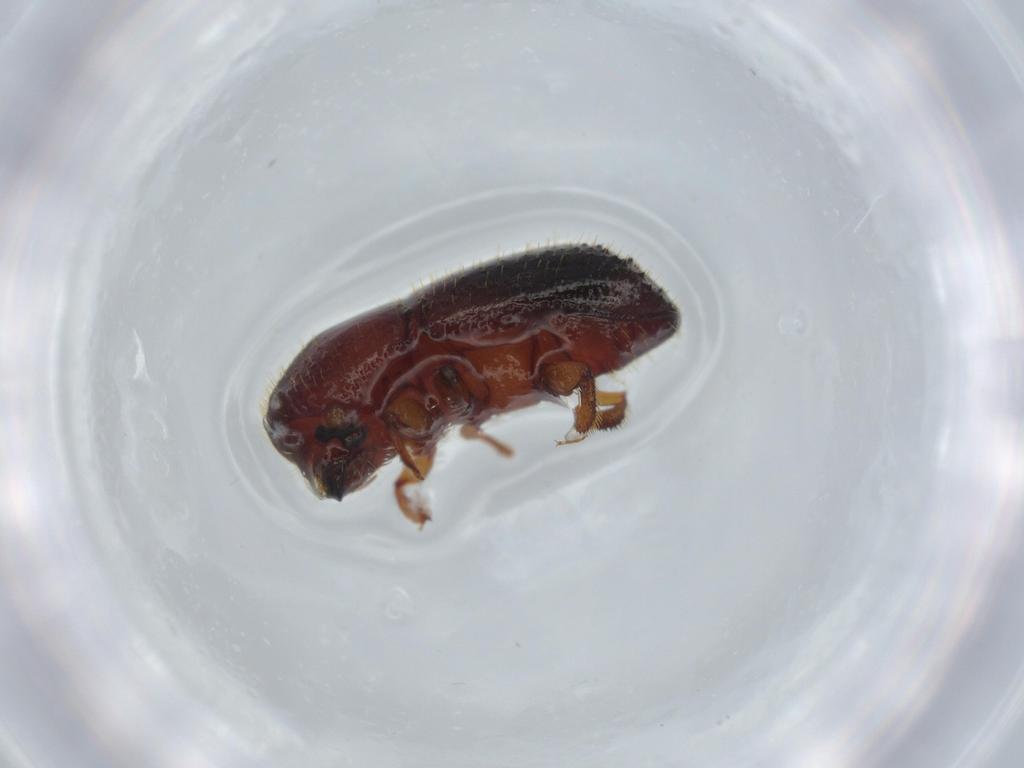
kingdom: Animalia
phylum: Arthropoda
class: Insecta
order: Coleoptera
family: Curculionidae
